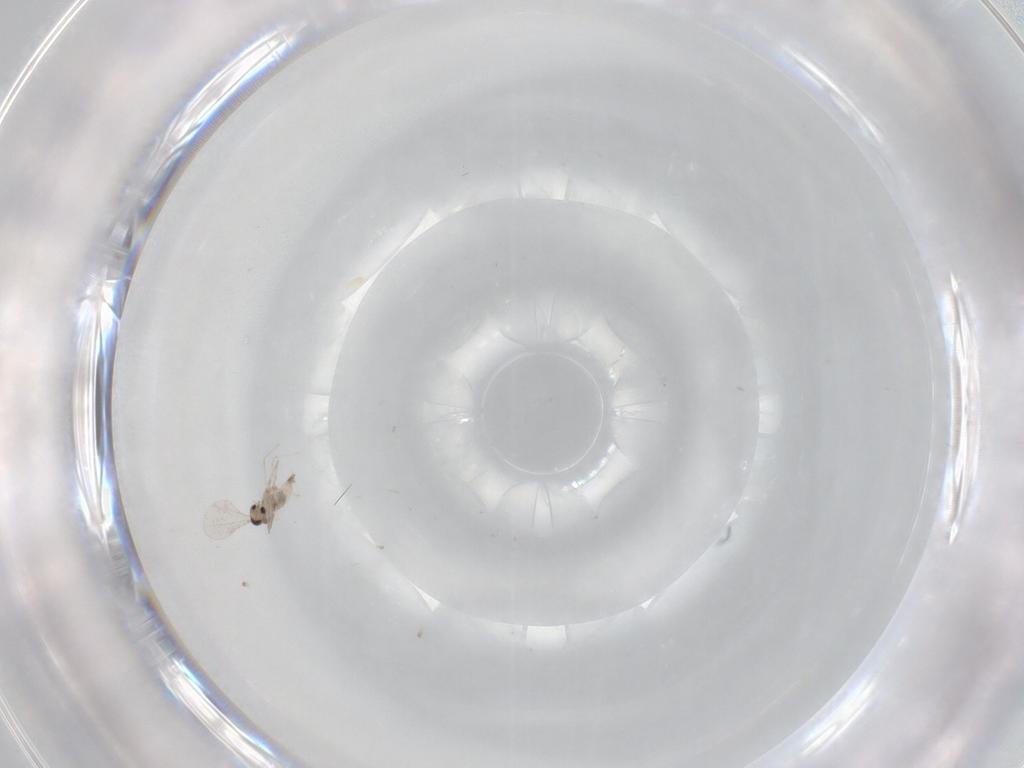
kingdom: Animalia
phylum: Arthropoda
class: Insecta
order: Diptera
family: Cecidomyiidae
